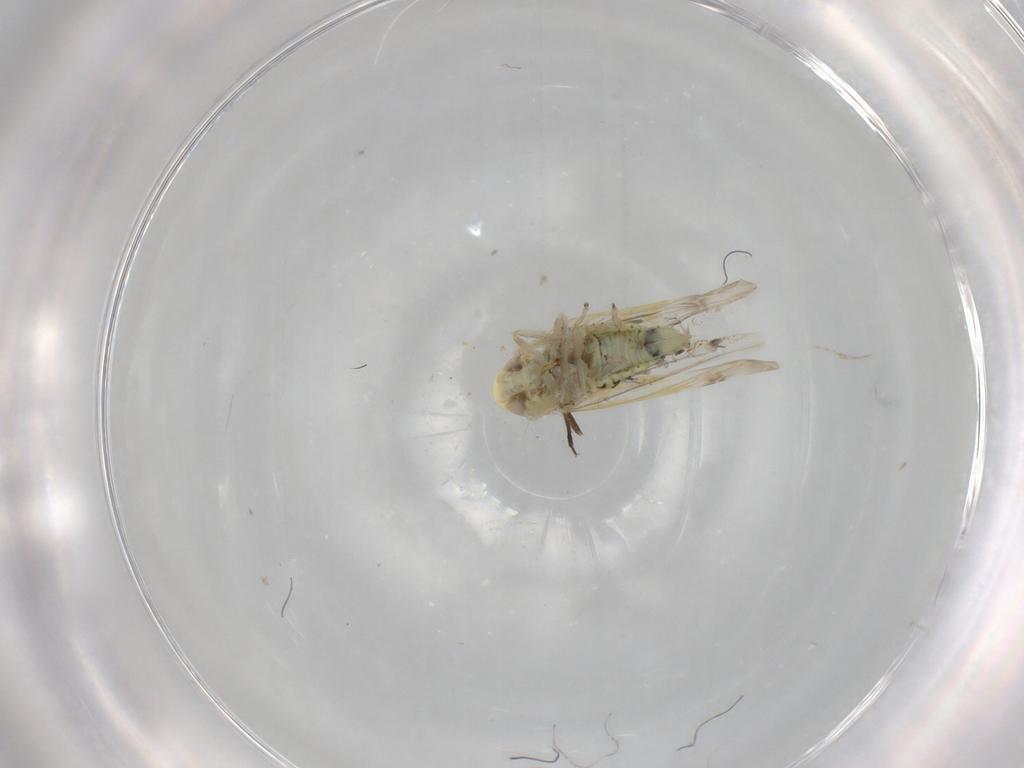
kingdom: Animalia
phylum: Arthropoda
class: Insecta
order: Hemiptera
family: Cicadellidae
